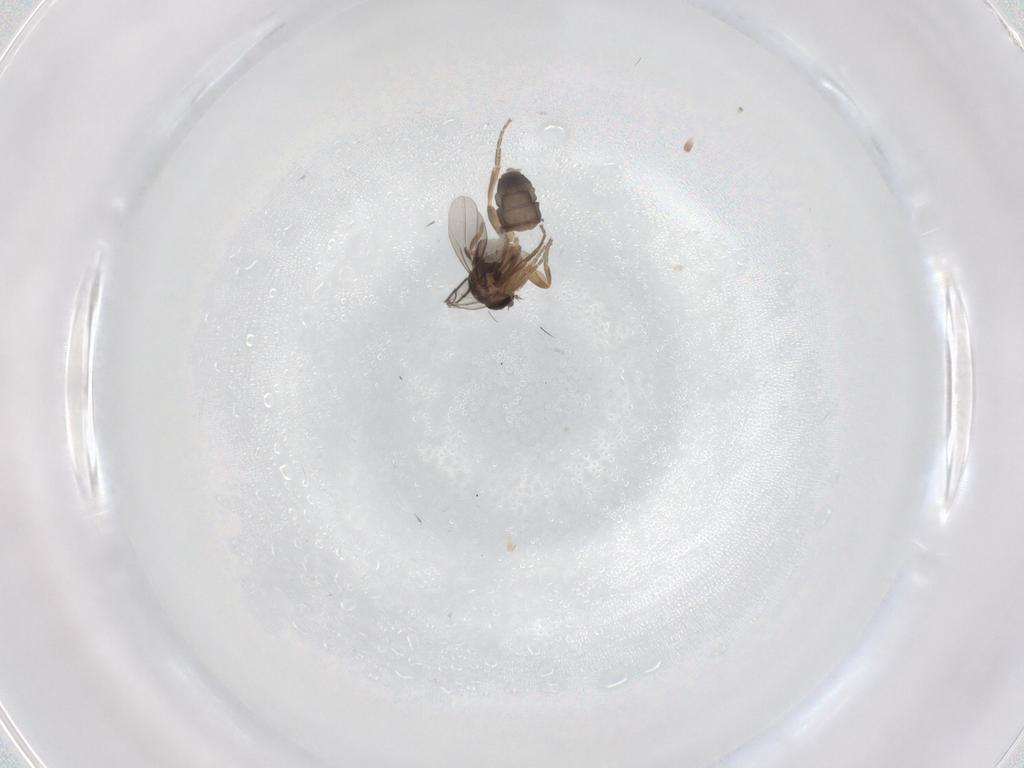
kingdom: Animalia
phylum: Arthropoda
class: Insecta
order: Diptera
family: Phoridae
